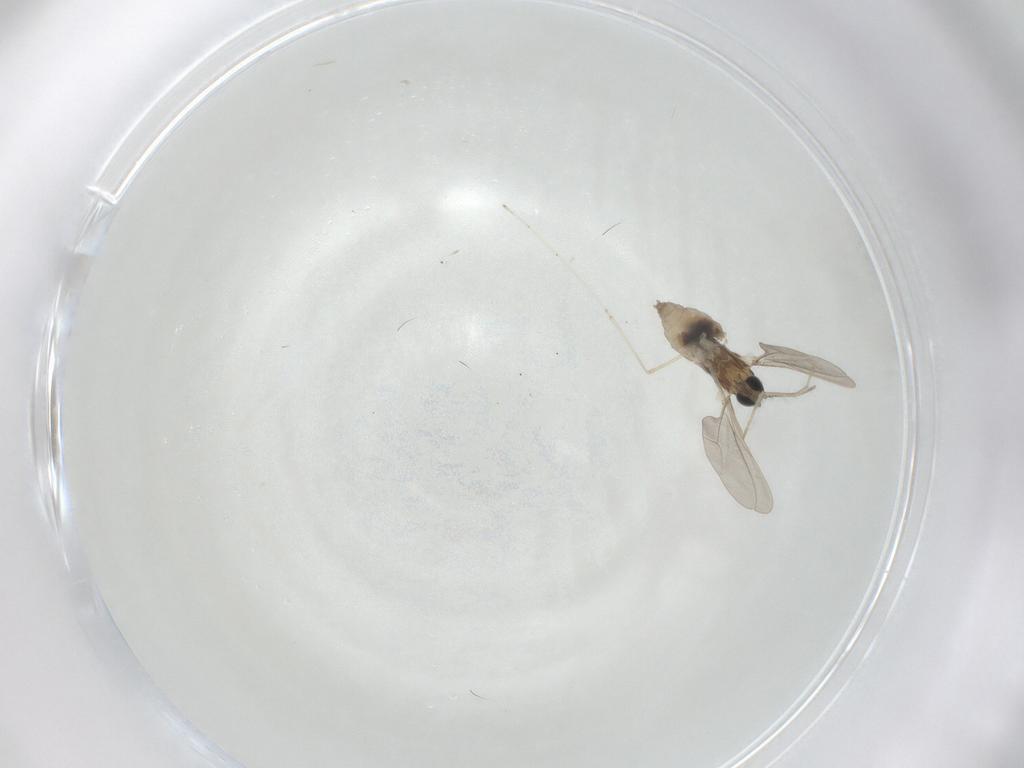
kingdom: Animalia
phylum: Arthropoda
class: Insecta
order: Diptera
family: Cecidomyiidae
